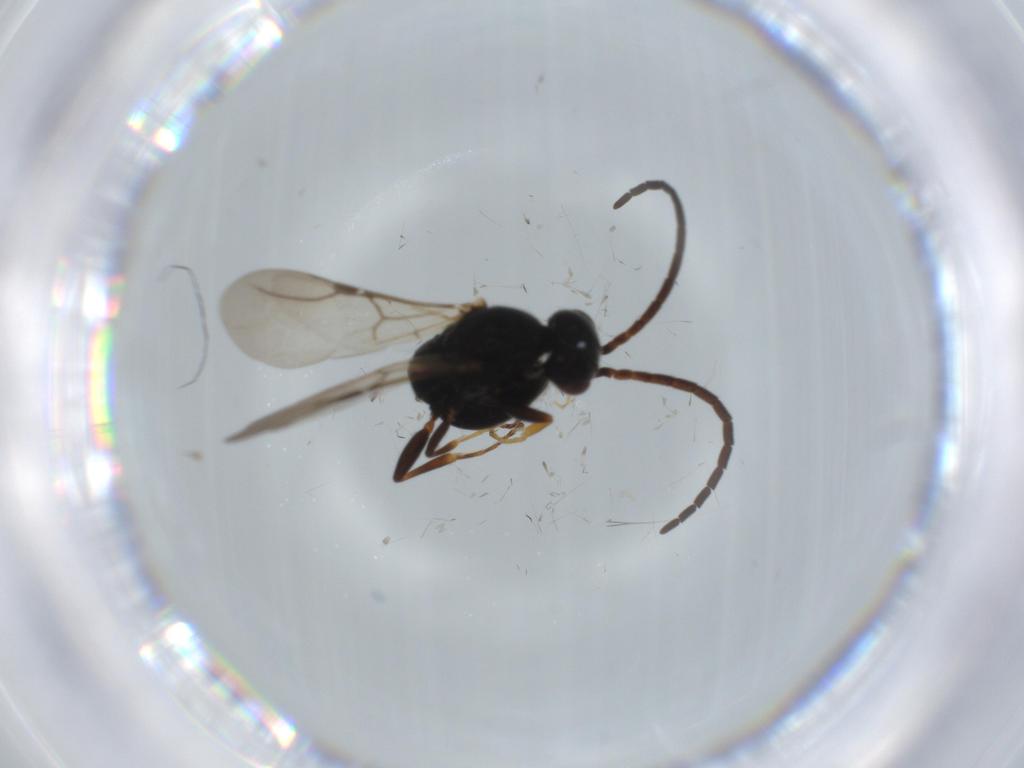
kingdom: Animalia
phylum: Arthropoda
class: Insecta
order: Hymenoptera
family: Bethylidae
